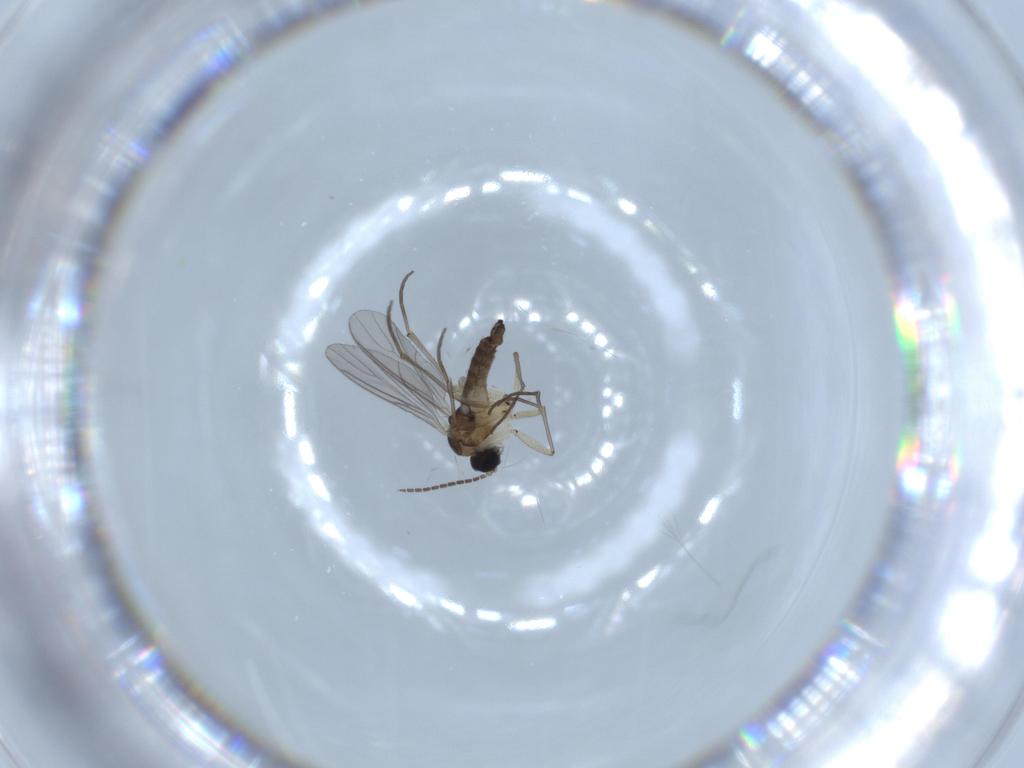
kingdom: Animalia
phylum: Arthropoda
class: Insecta
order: Diptera
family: Sciaridae
